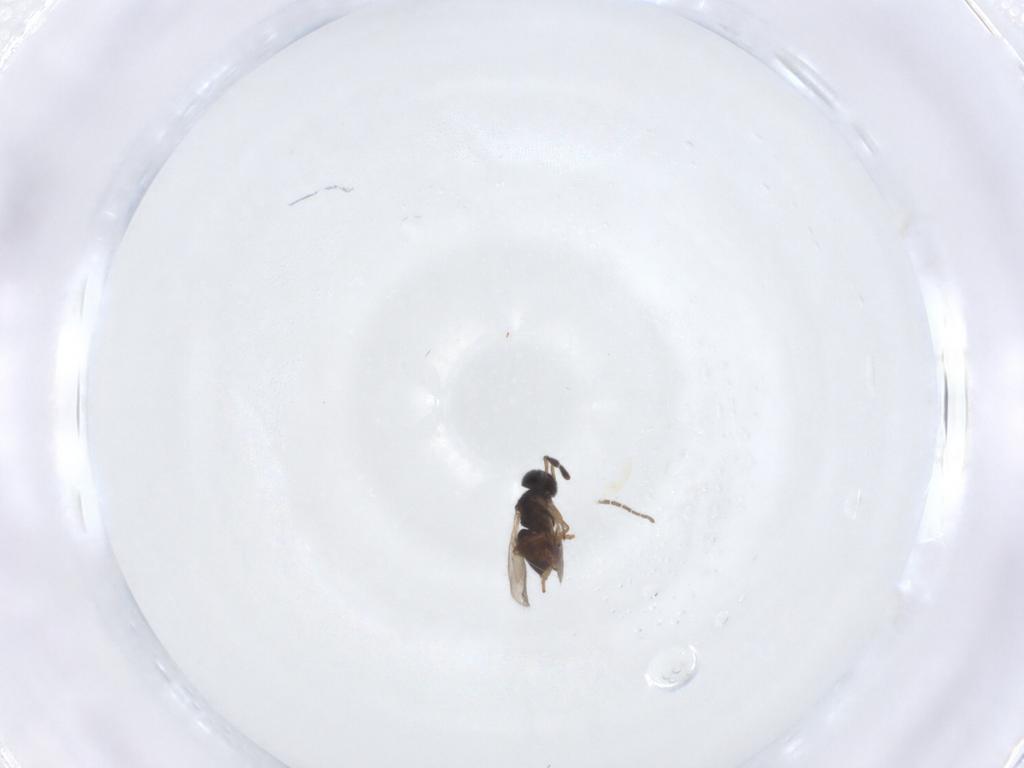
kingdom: Animalia
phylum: Arthropoda
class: Insecta
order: Diptera
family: Sciaridae
